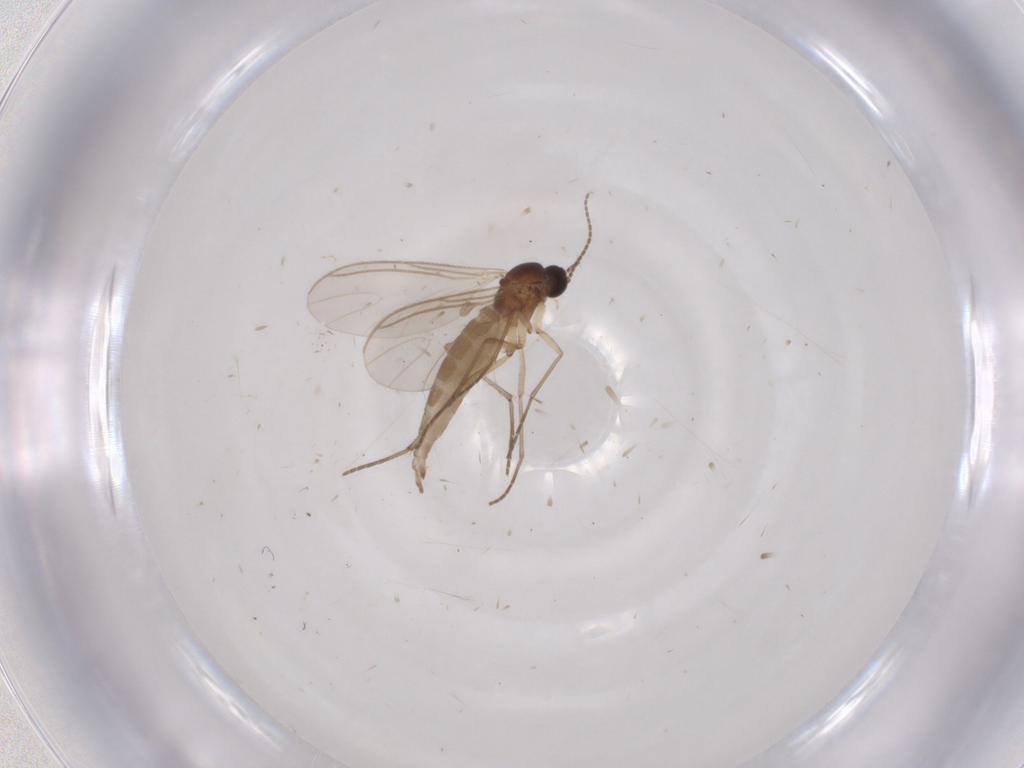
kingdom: Animalia
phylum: Arthropoda
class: Insecta
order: Diptera
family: Sciaridae
